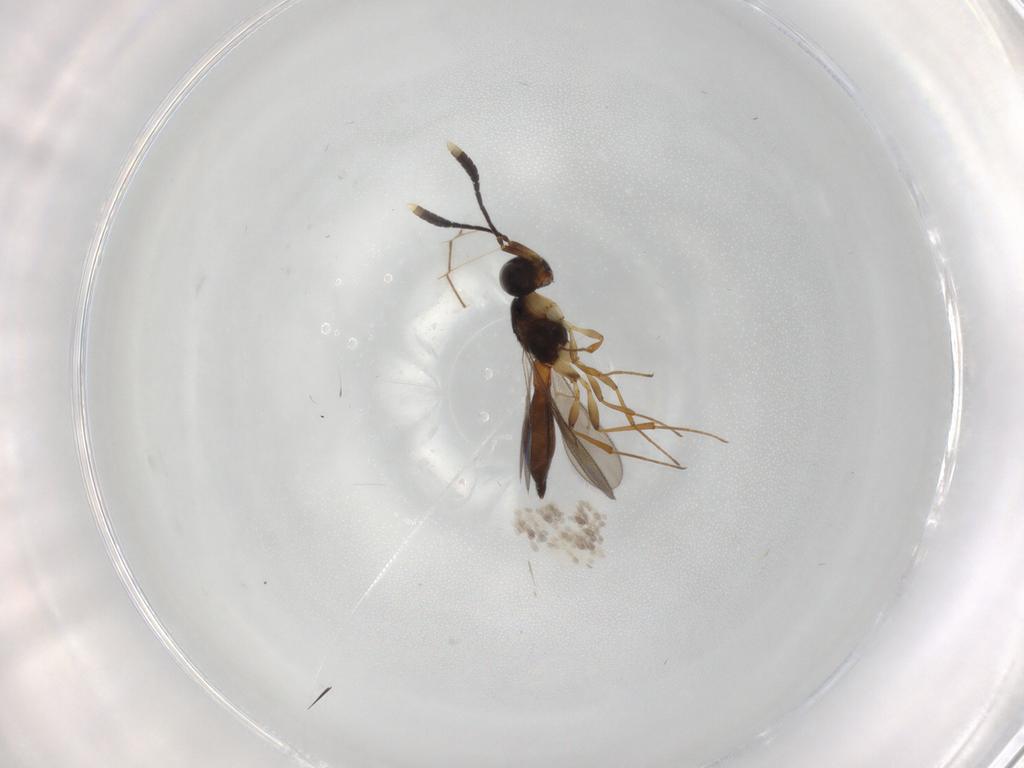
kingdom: Animalia
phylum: Arthropoda
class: Insecta
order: Hymenoptera
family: Scelionidae
